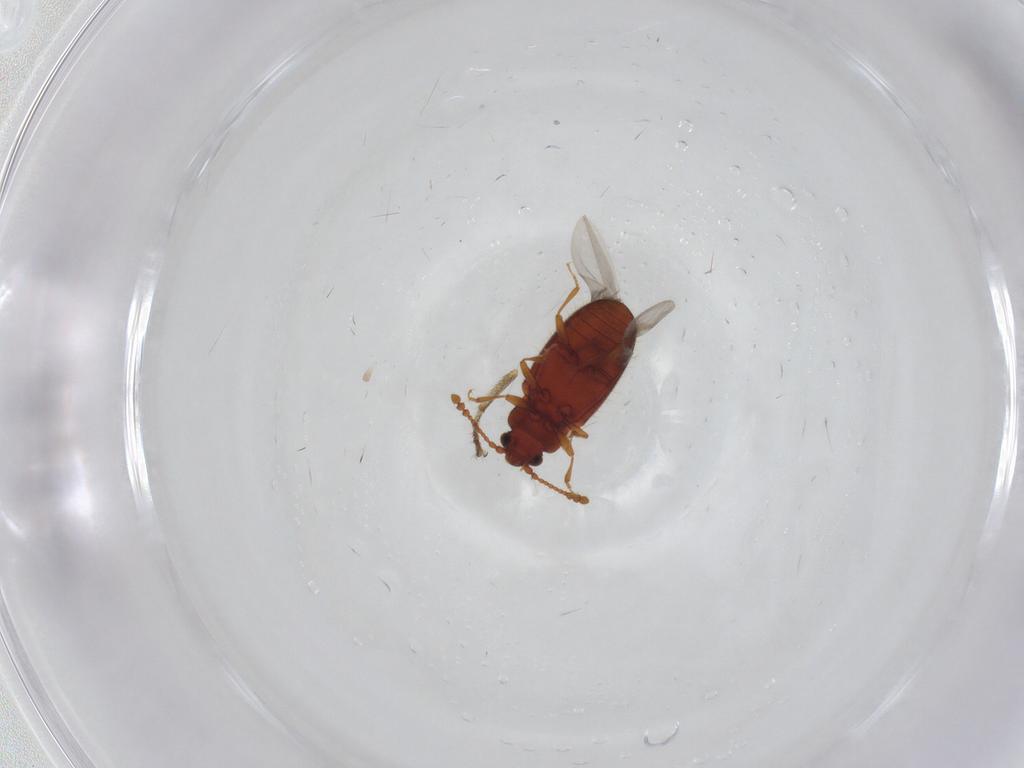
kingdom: Animalia
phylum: Arthropoda
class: Insecta
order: Coleoptera
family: Cryptophagidae
